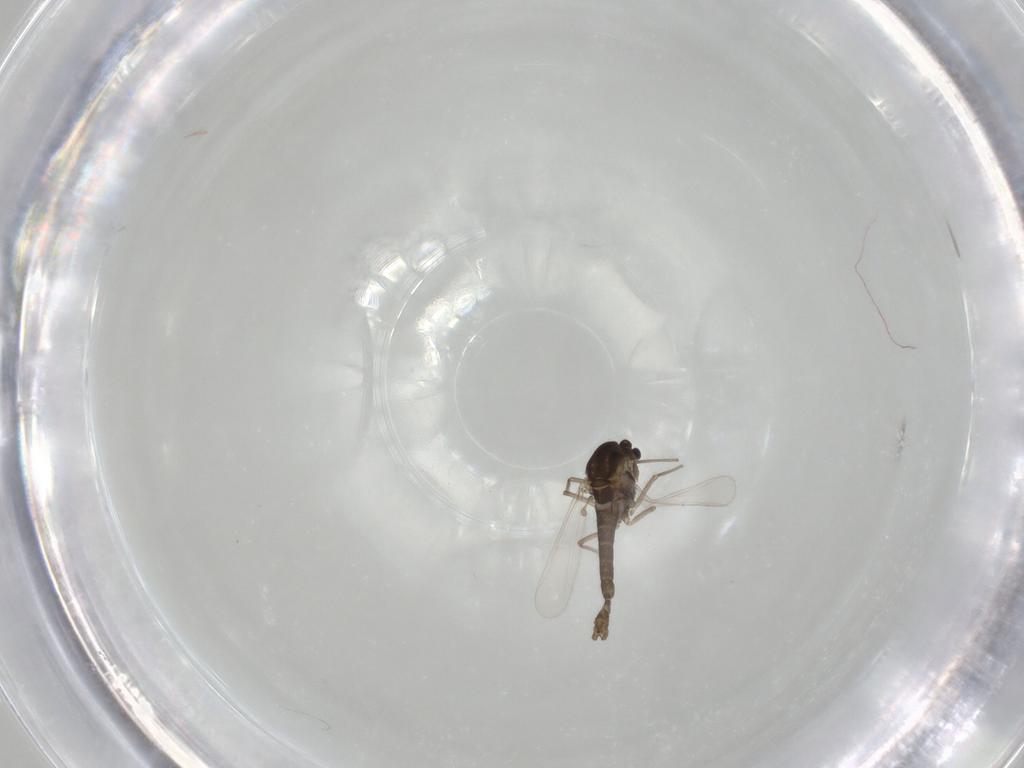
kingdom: Animalia
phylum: Arthropoda
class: Insecta
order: Diptera
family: Chironomidae
